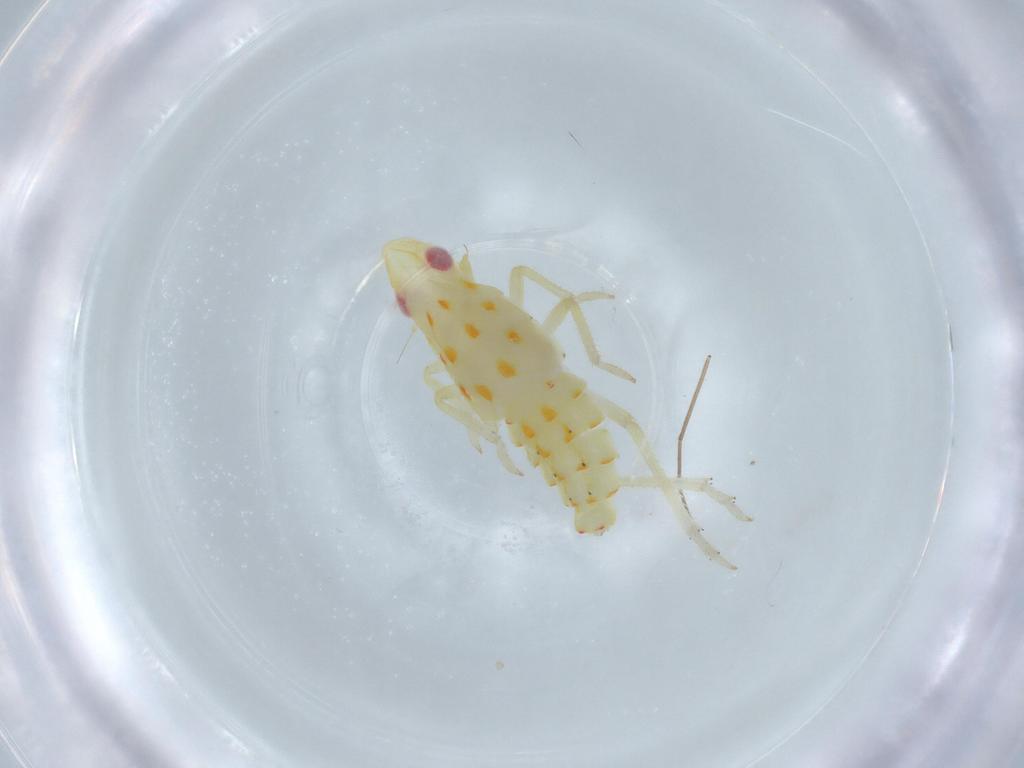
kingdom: Animalia
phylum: Arthropoda
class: Insecta
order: Hemiptera
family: Tropiduchidae
